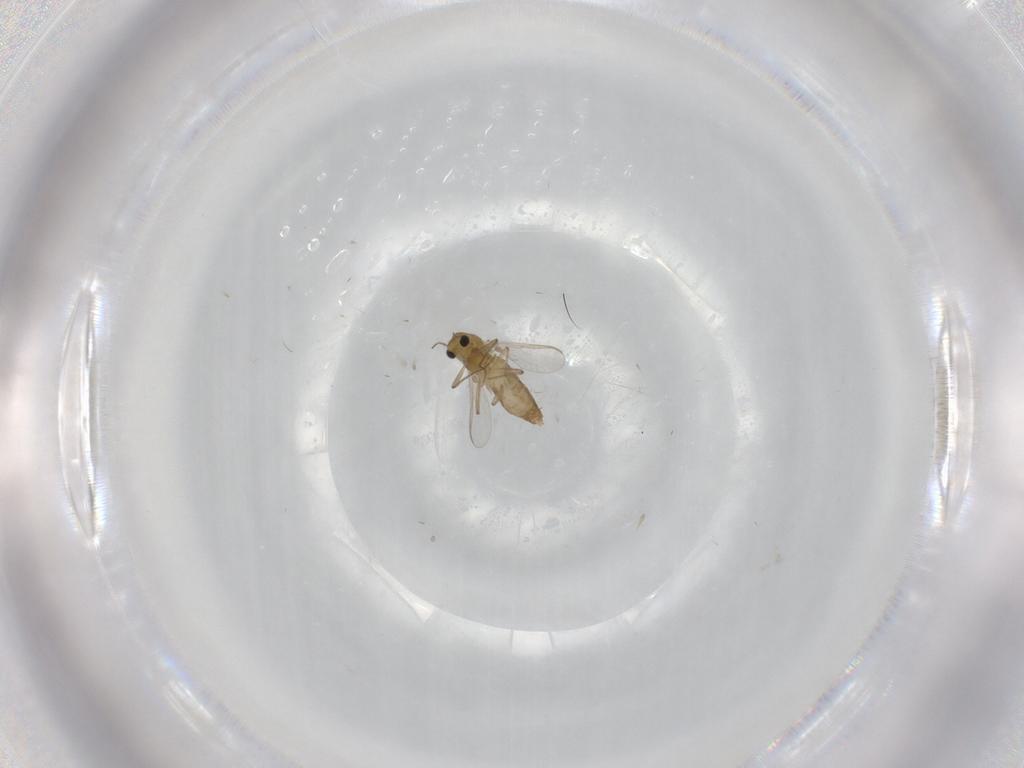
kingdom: Animalia
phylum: Arthropoda
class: Insecta
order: Diptera
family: Chironomidae
